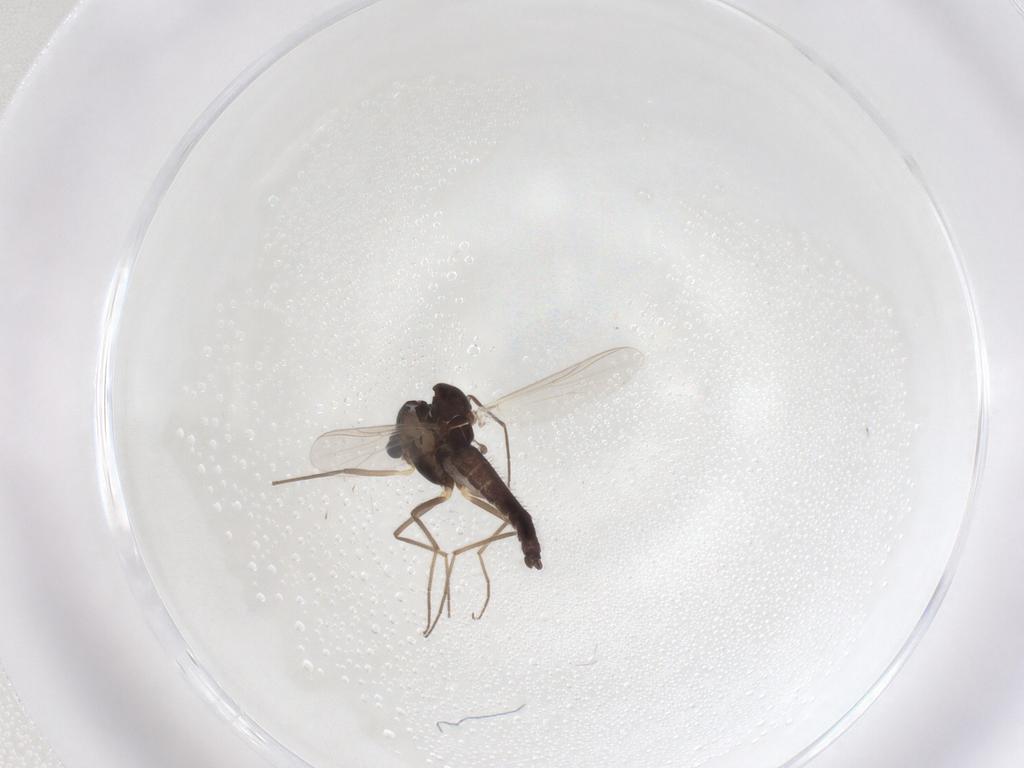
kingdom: Animalia
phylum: Arthropoda
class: Insecta
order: Diptera
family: Chironomidae
